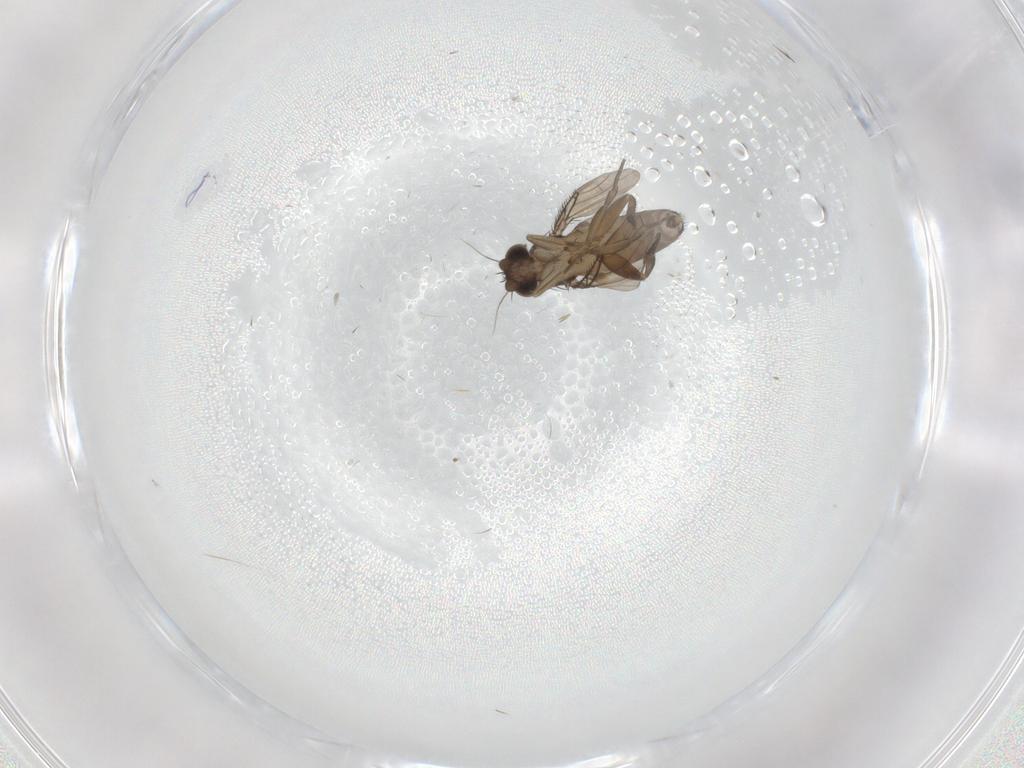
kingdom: Animalia
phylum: Arthropoda
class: Insecta
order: Diptera
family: Phoridae
